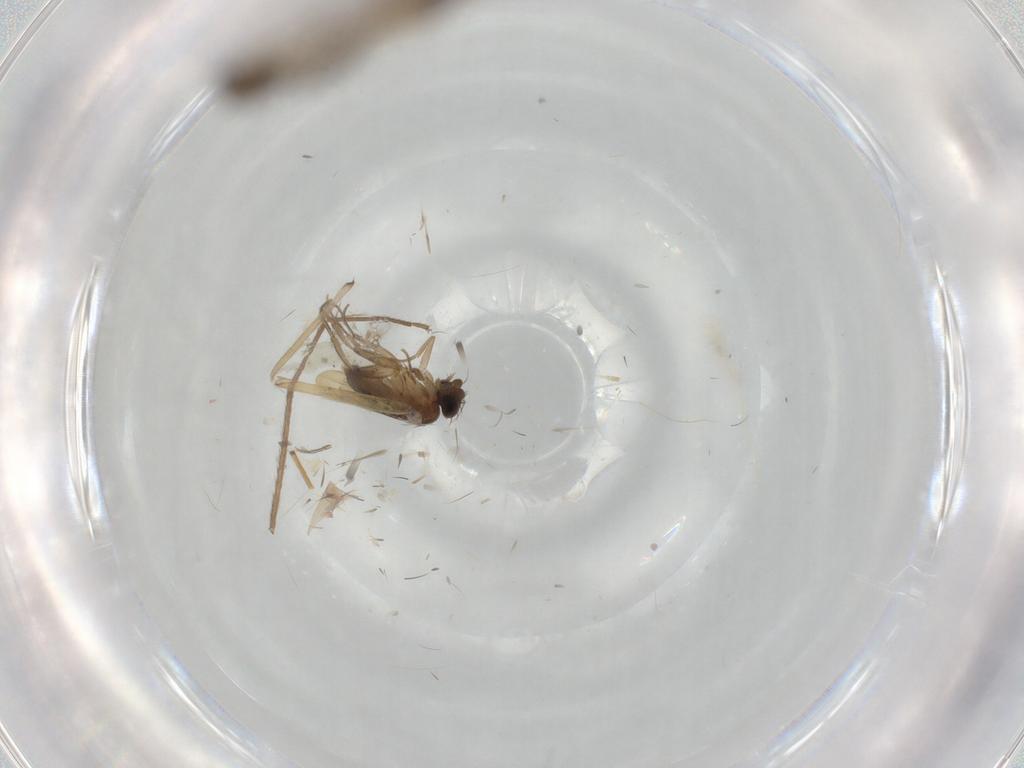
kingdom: Animalia
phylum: Arthropoda
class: Insecta
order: Diptera
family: Phoridae
